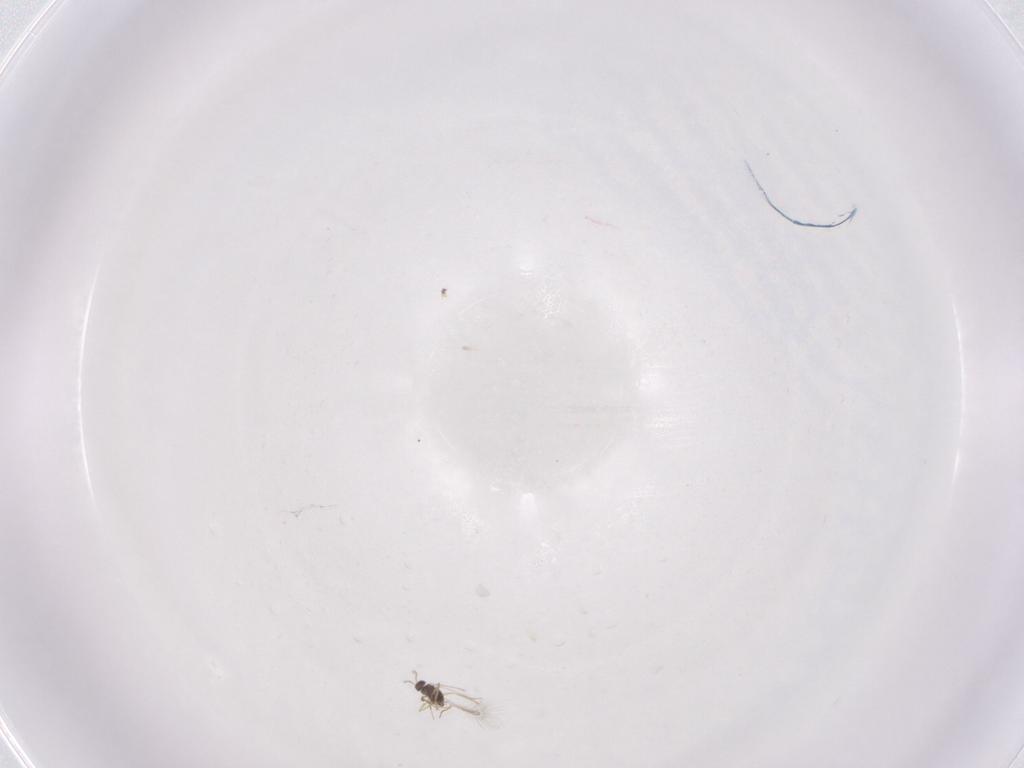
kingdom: Animalia
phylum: Arthropoda
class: Insecta
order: Diptera
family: Cecidomyiidae
